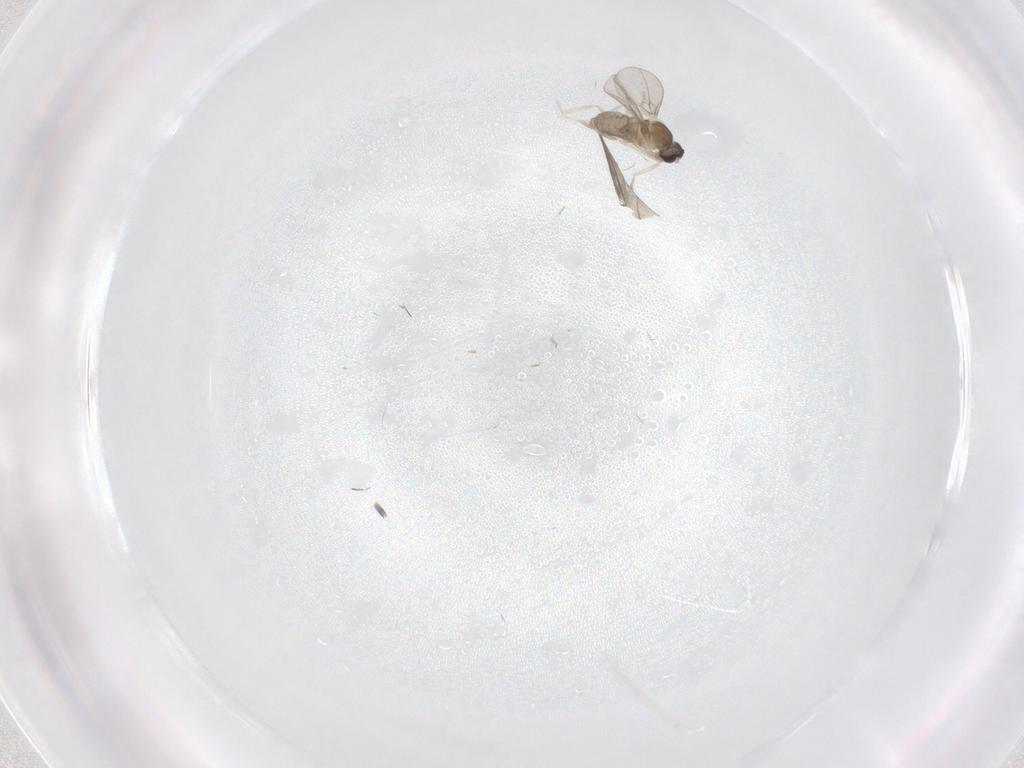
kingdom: Animalia
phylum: Arthropoda
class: Insecta
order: Diptera
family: Cecidomyiidae
